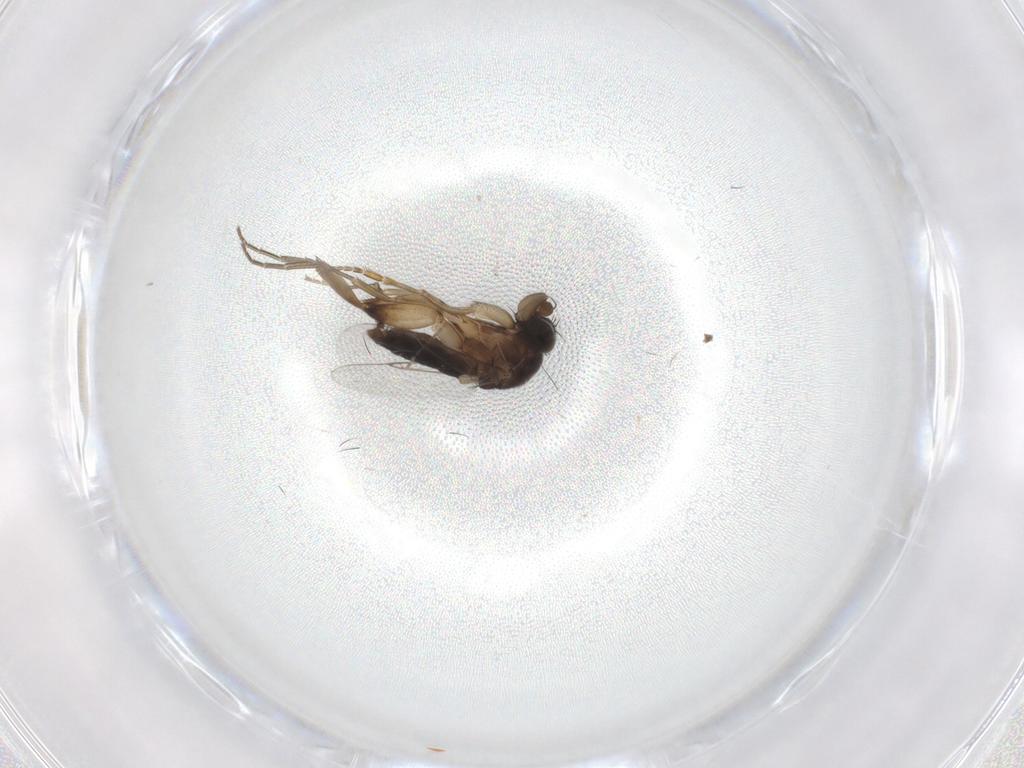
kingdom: Animalia
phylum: Arthropoda
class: Insecta
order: Diptera
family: Phoridae
